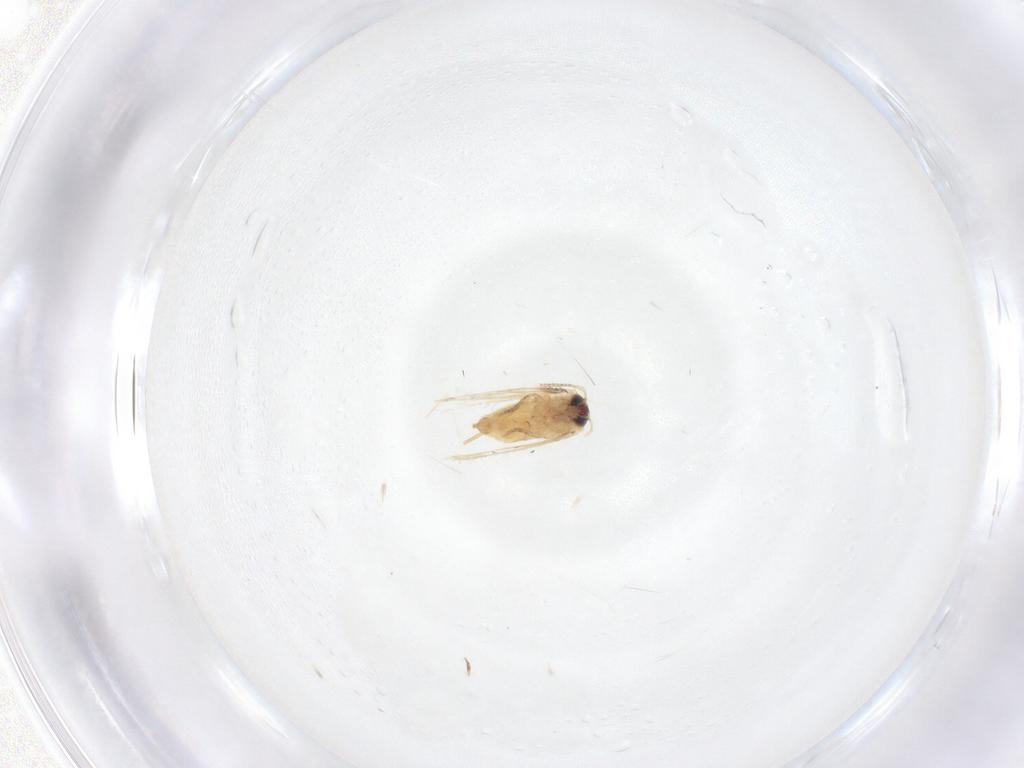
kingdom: Animalia
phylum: Arthropoda
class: Insecta
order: Lepidoptera
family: Crambidae
